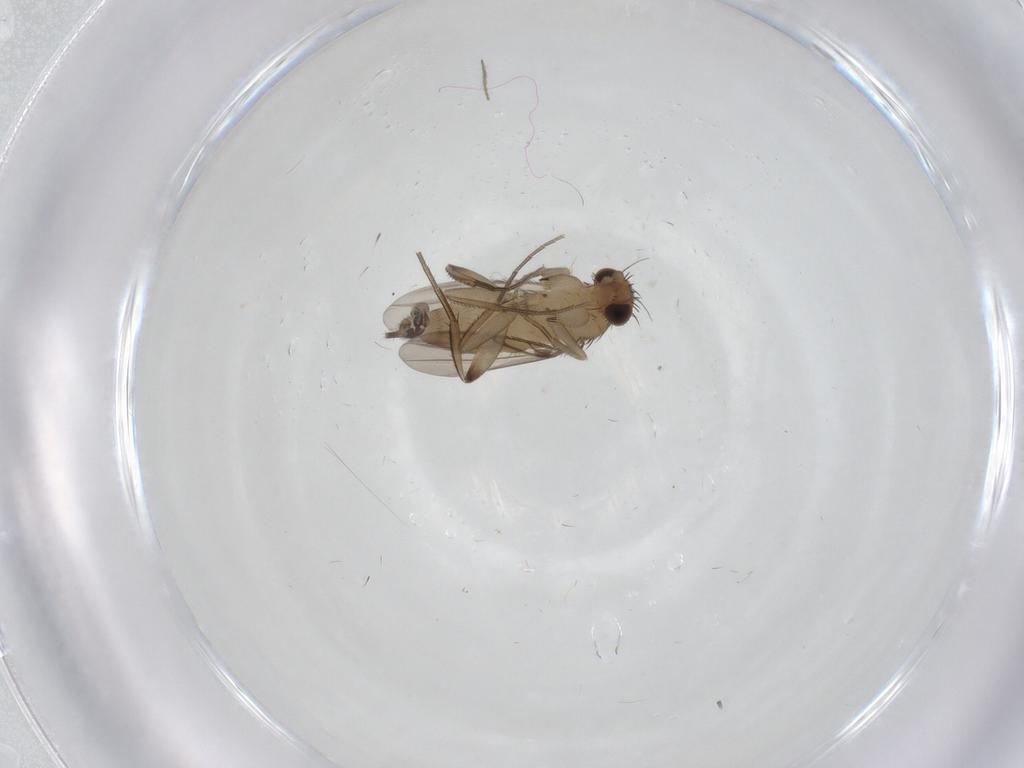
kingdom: Animalia
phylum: Arthropoda
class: Insecta
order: Diptera
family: Phoridae
